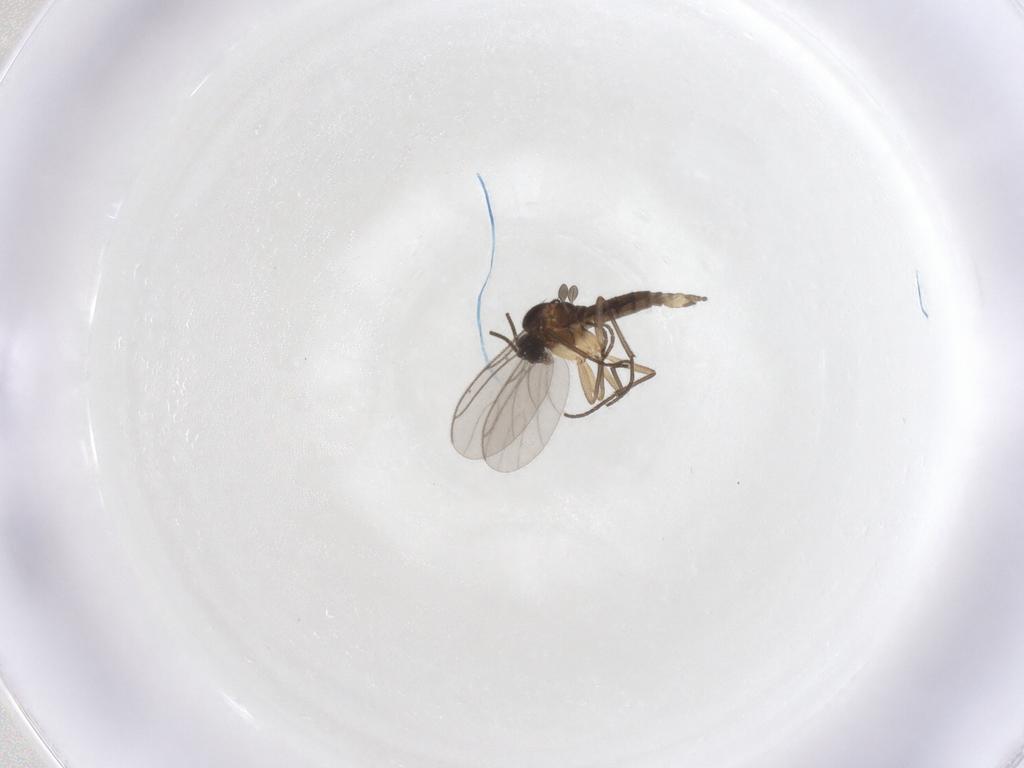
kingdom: Animalia
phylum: Arthropoda
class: Insecta
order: Diptera
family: Sciaridae
